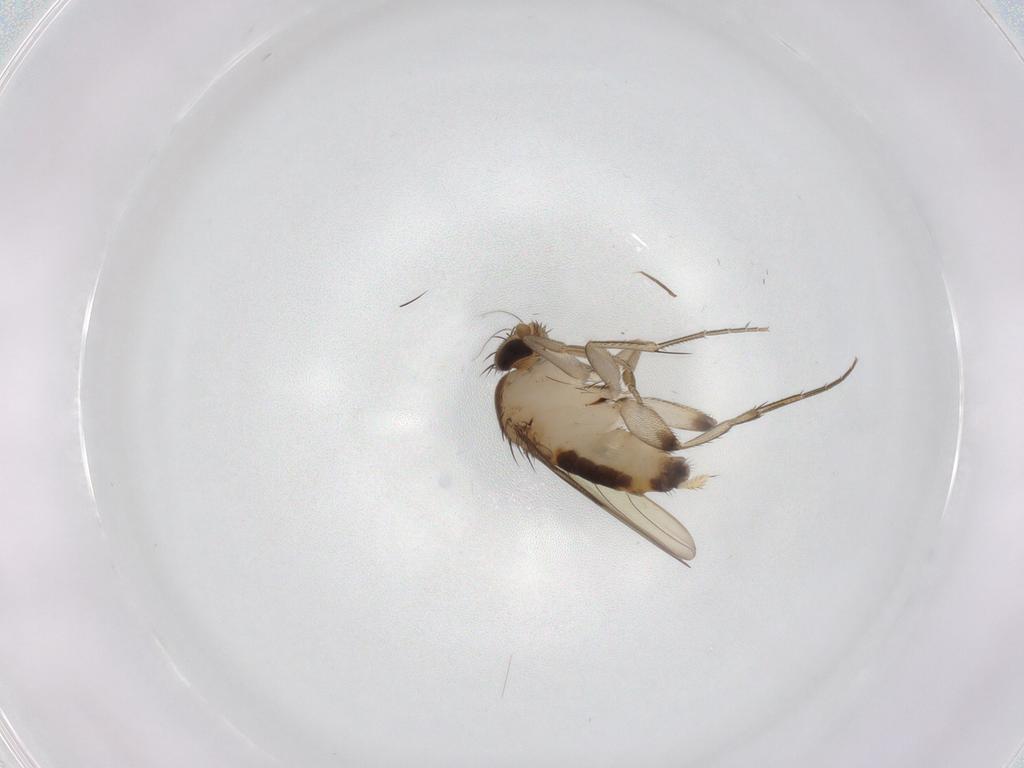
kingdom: Animalia
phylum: Arthropoda
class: Insecta
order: Diptera
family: Phoridae
